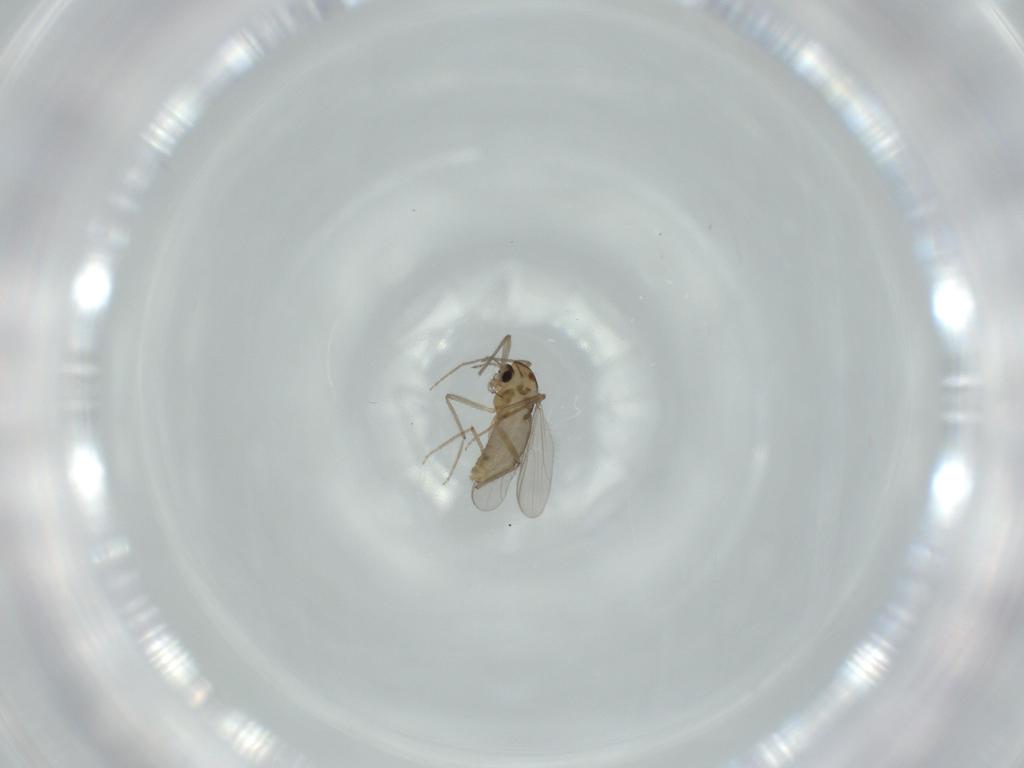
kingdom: Animalia
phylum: Arthropoda
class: Insecta
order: Diptera
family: Chironomidae
